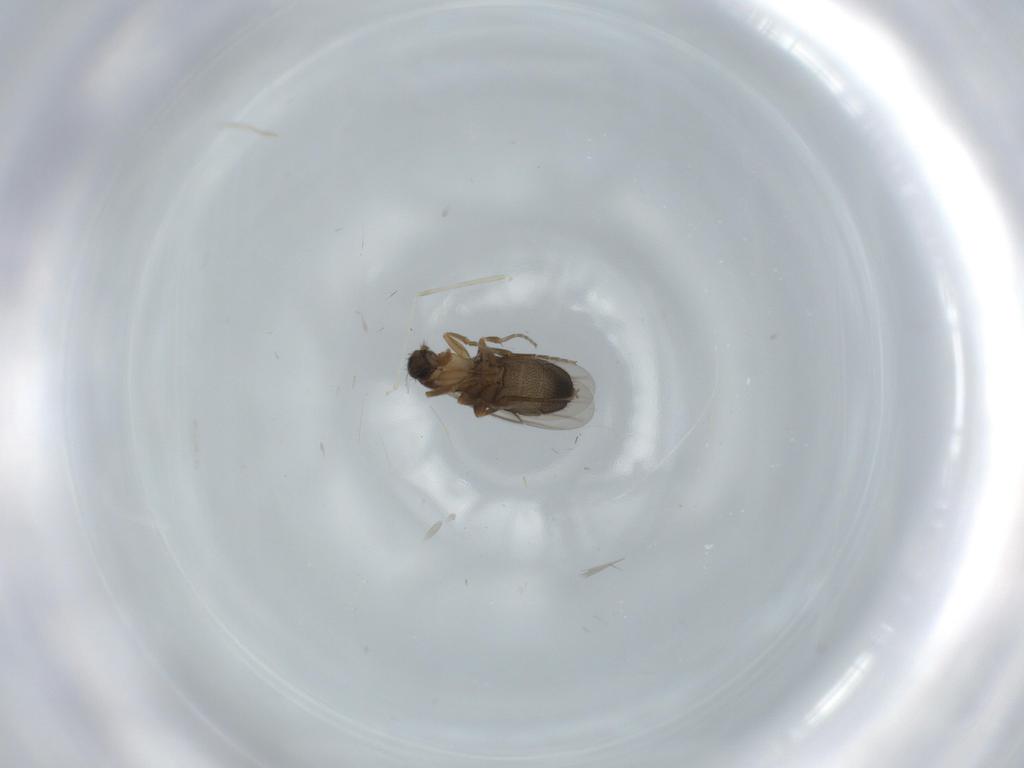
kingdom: Animalia
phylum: Arthropoda
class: Insecta
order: Diptera
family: Phoridae
